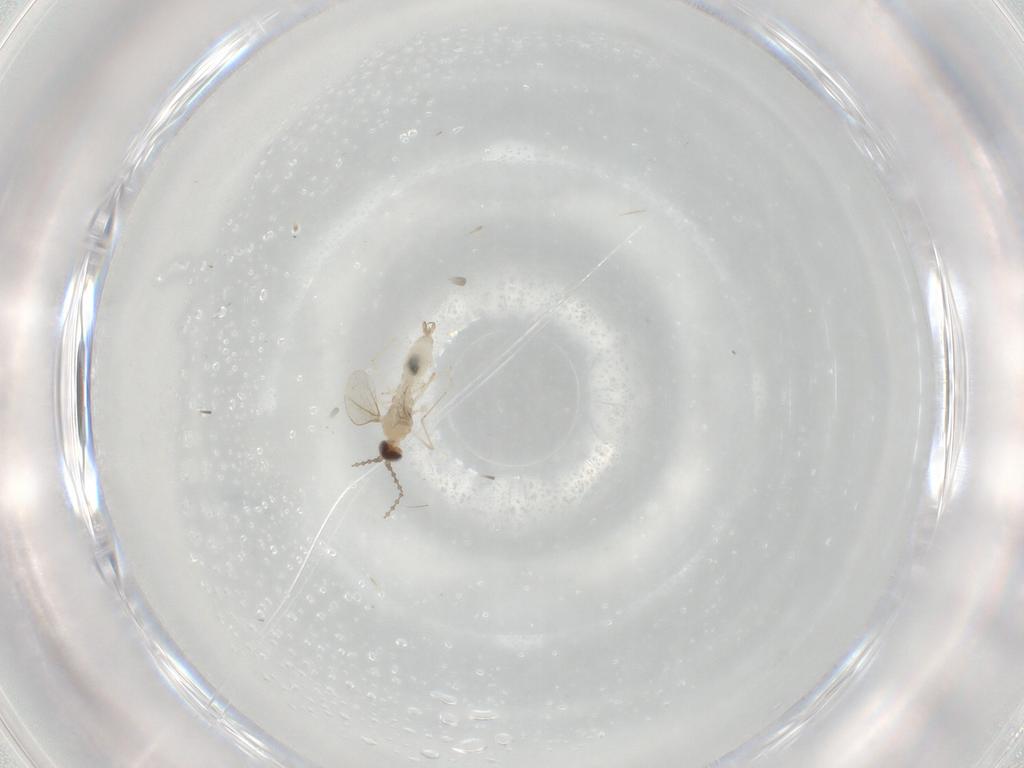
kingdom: Animalia
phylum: Arthropoda
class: Insecta
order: Diptera
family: Cecidomyiidae
